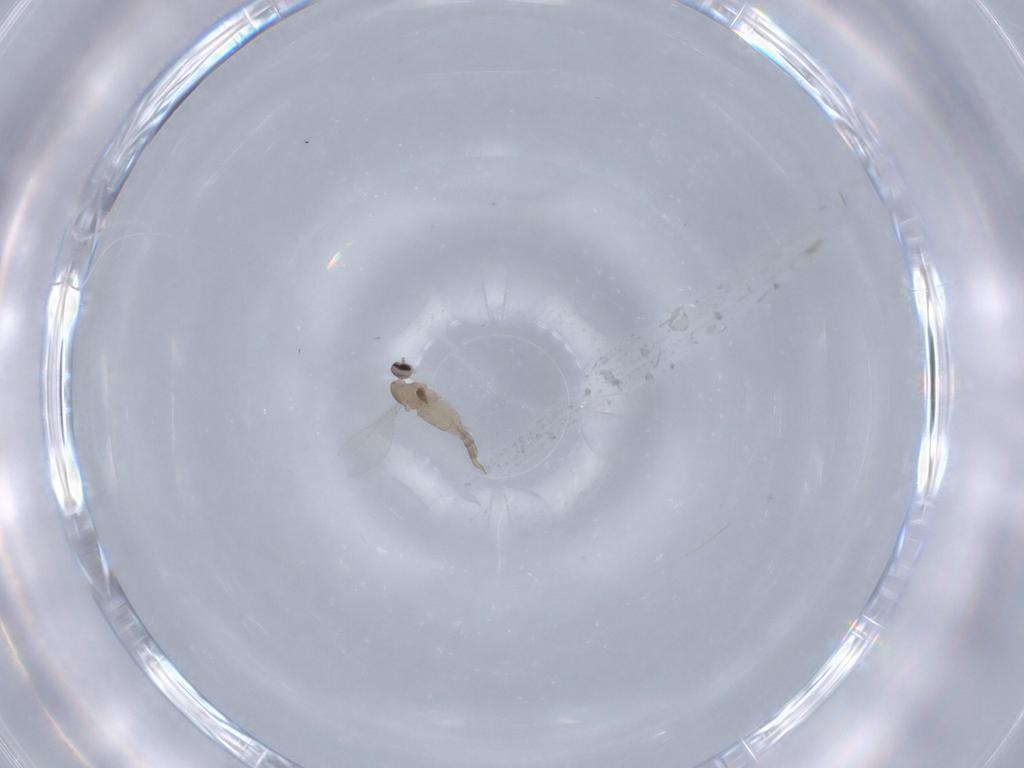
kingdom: Animalia
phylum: Arthropoda
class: Insecta
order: Diptera
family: Cecidomyiidae
